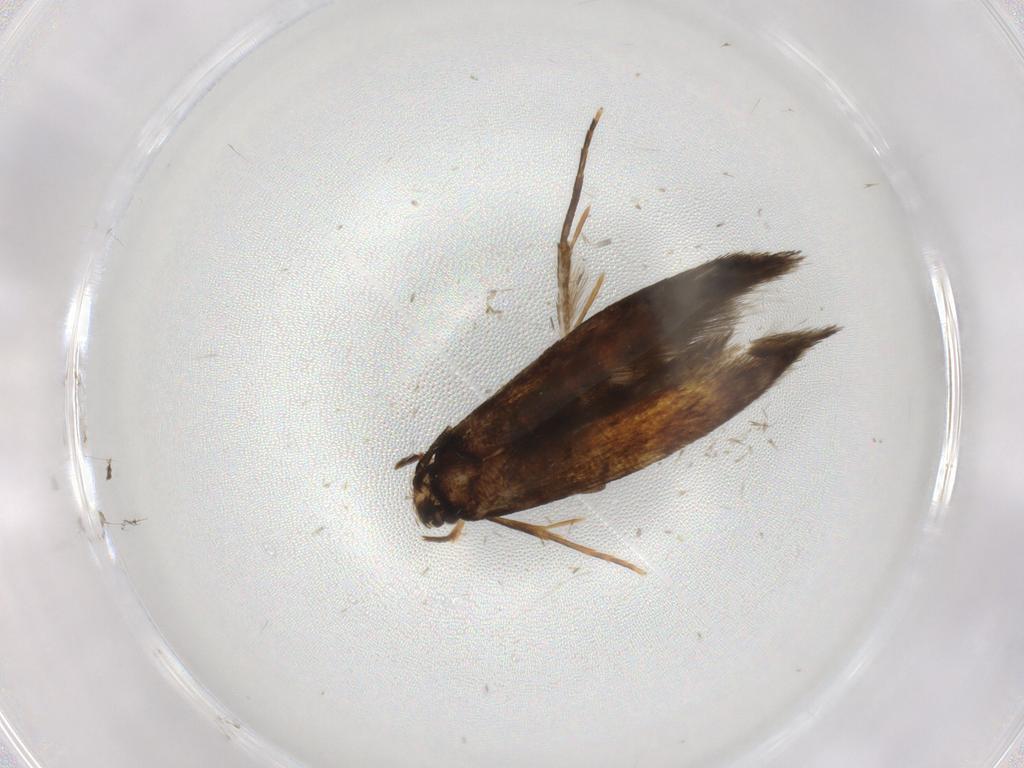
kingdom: Animalia
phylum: Arthropoda
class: Insecta
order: Lepidoptera
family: Tineidae
